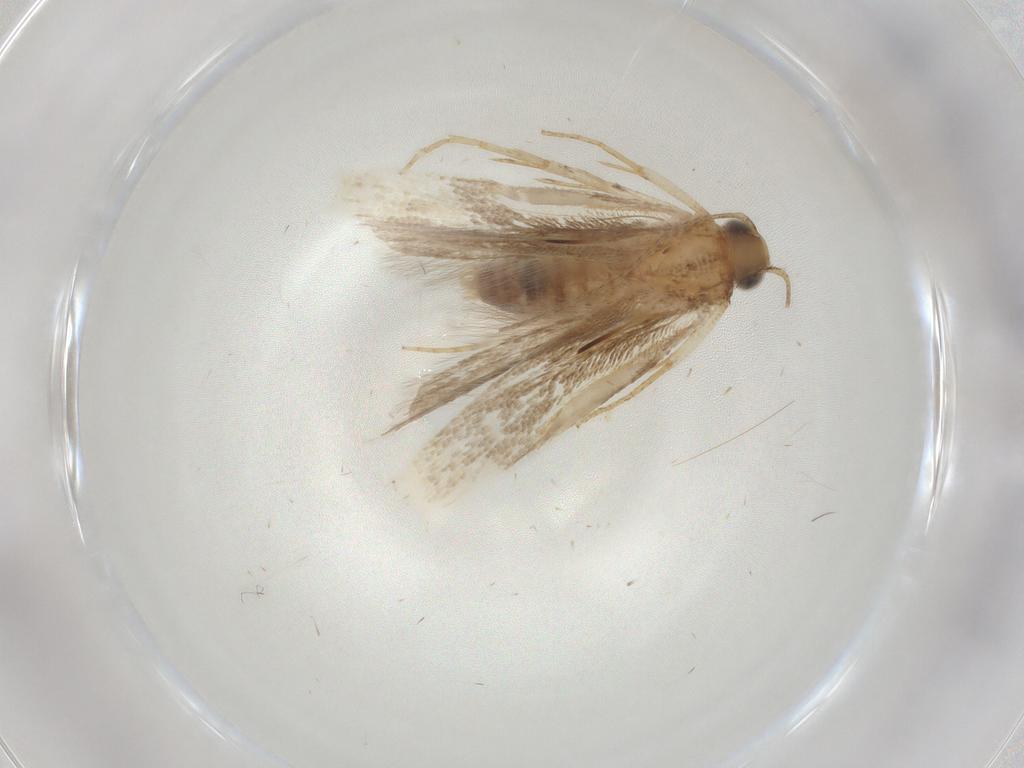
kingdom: Animalia
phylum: Arthropoda
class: Insecta
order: Lepidoptera
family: Gelechiidae
